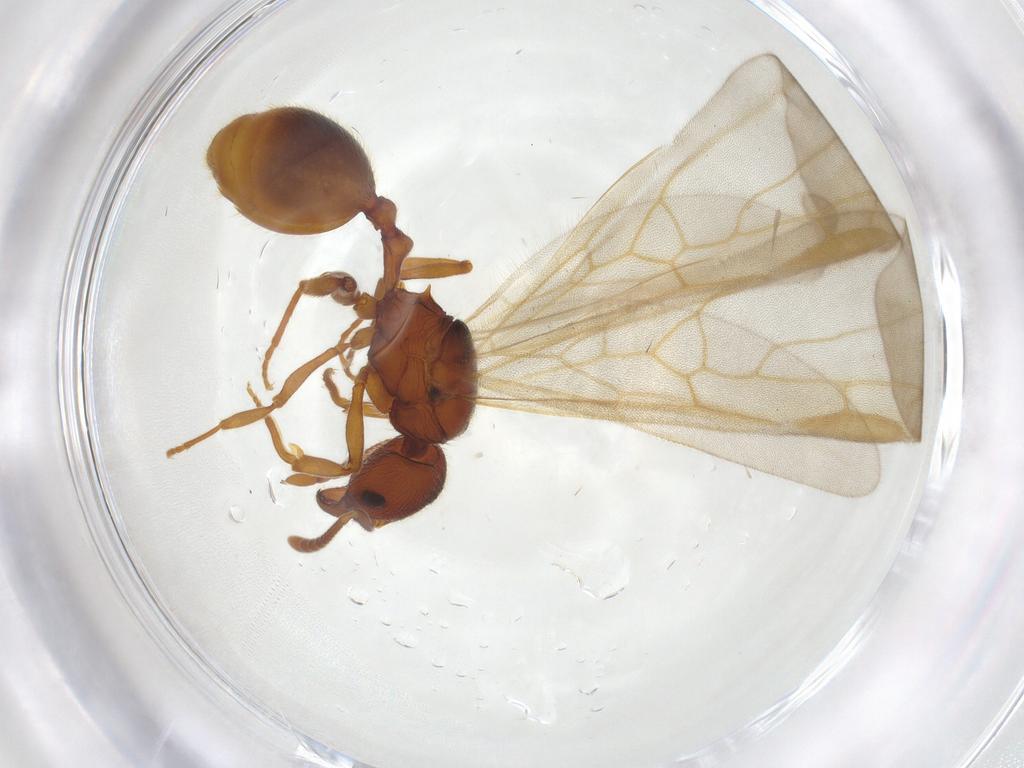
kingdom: Animalia
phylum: Arthropoda
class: Insecta
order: Hymenoptera
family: Formicidae
